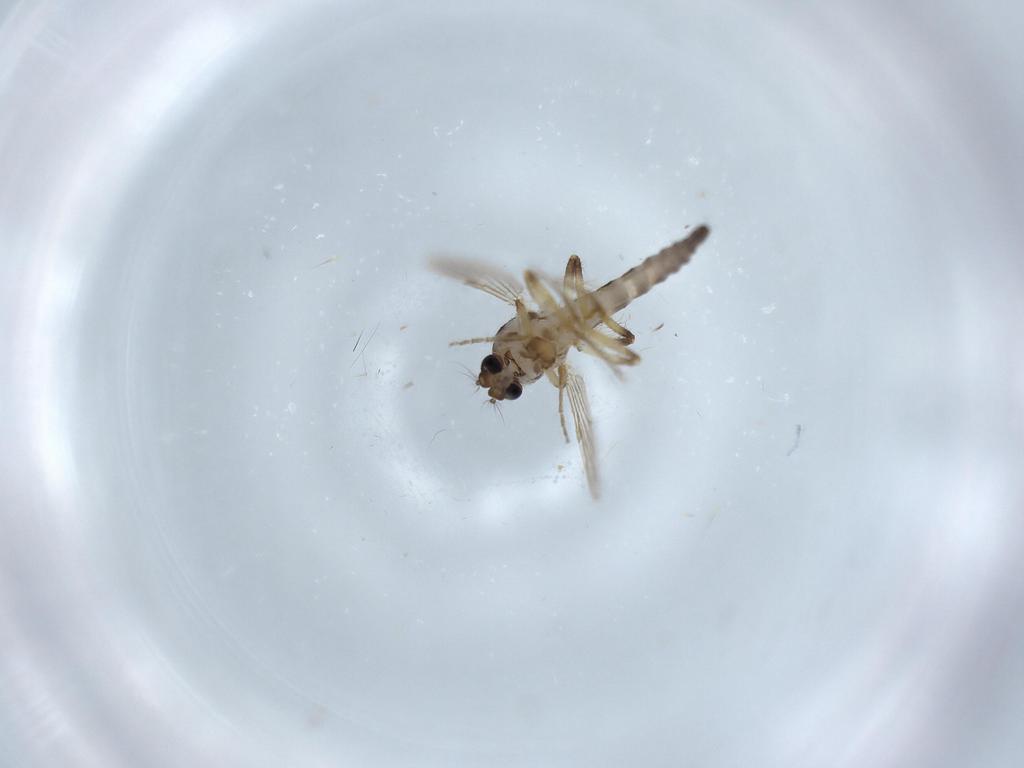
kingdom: Animalia
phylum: Arthropoda
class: Insecta
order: Diptera
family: Ceratopogonidae
